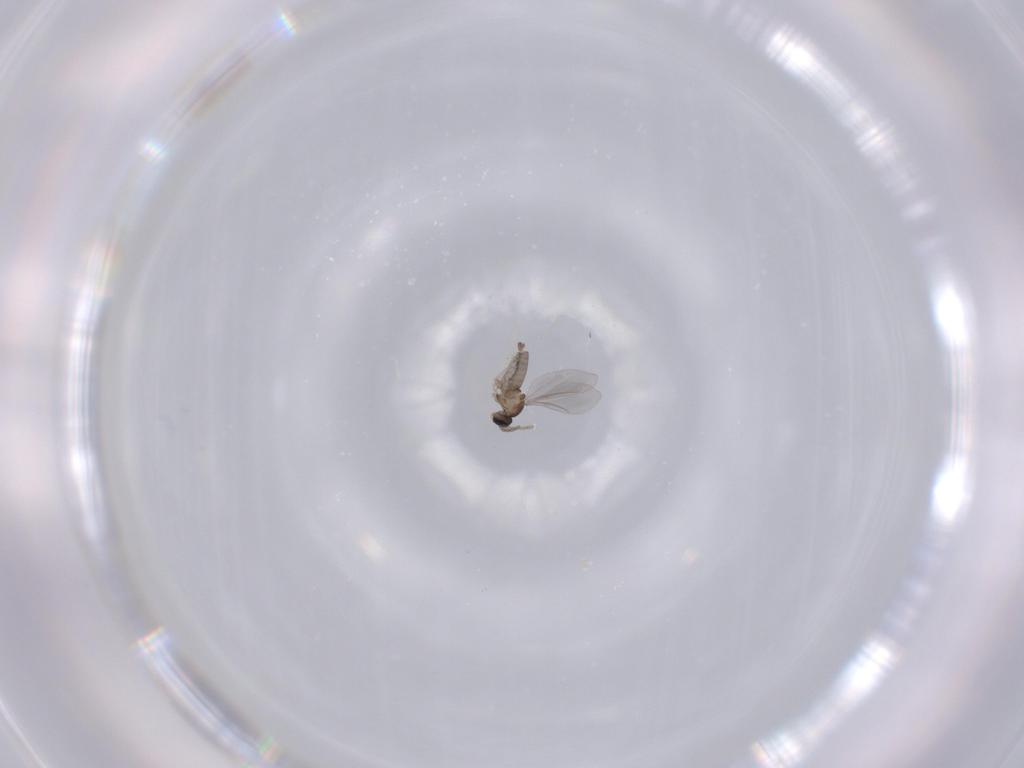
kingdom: Animalia
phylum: Arthropoda
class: Insecta
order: Diptera
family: Cecidomyiidae
